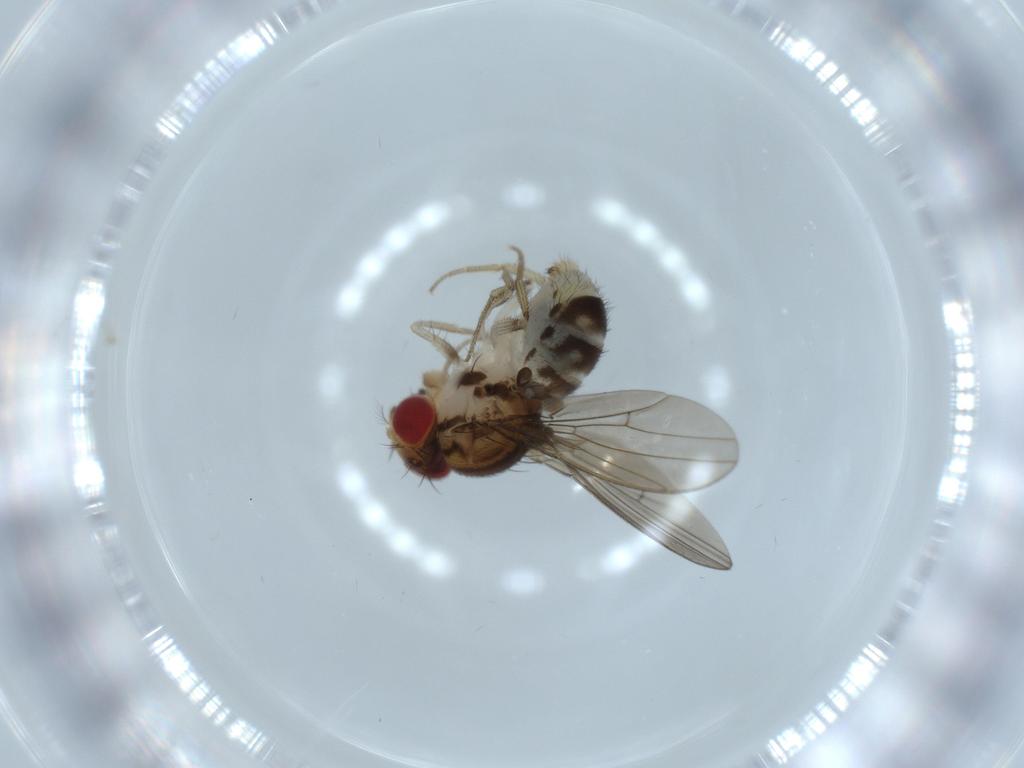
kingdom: Animalia
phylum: Arthropoda
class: Insecta
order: Diptera
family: Drosophilidae
